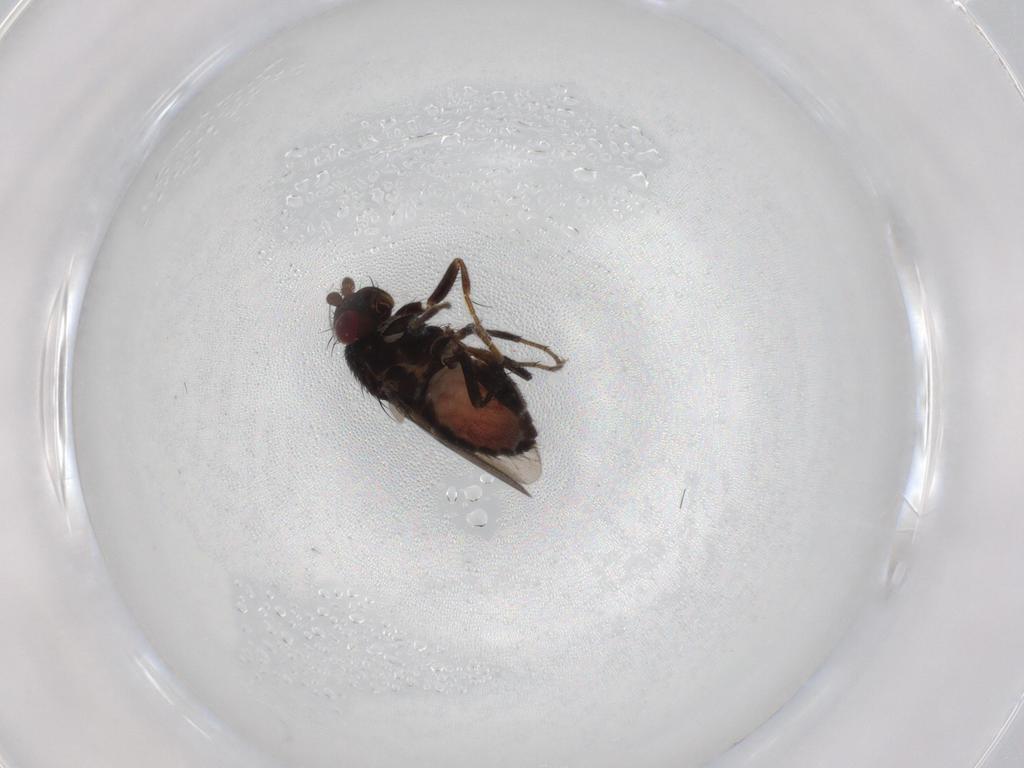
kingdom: Animalia
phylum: Arthropoda
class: Insecta
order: Diptera
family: Sphaeroceridae
